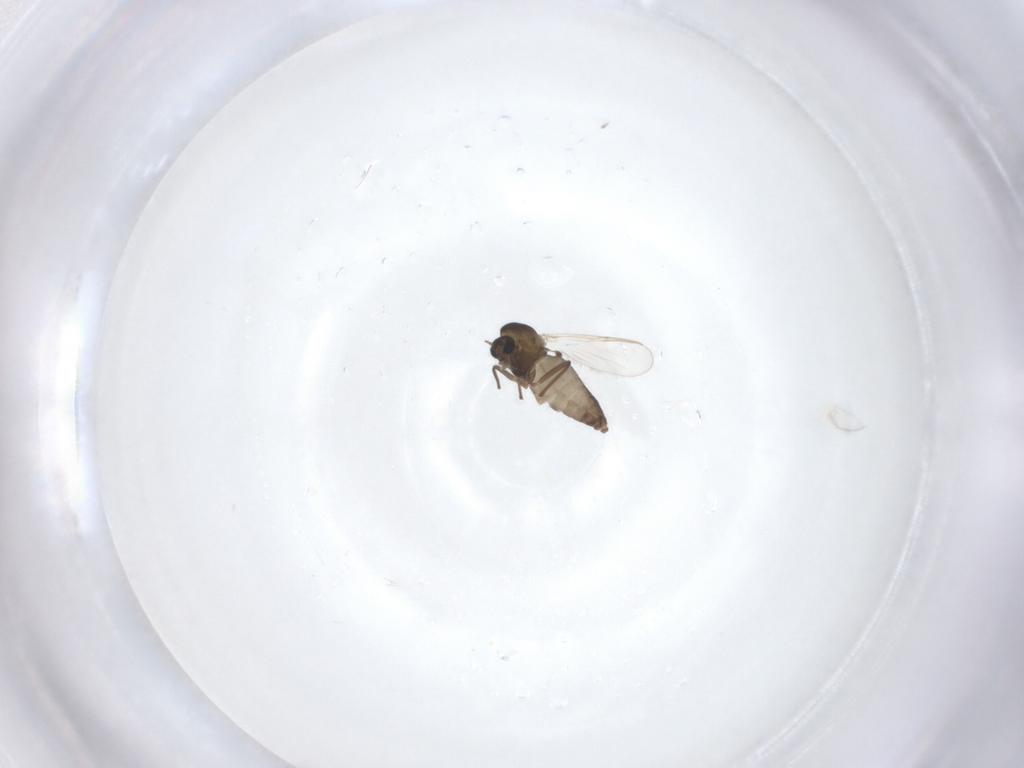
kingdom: Animalia
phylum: Arthropoda
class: Insecta
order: Diptera
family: Chironomidae
